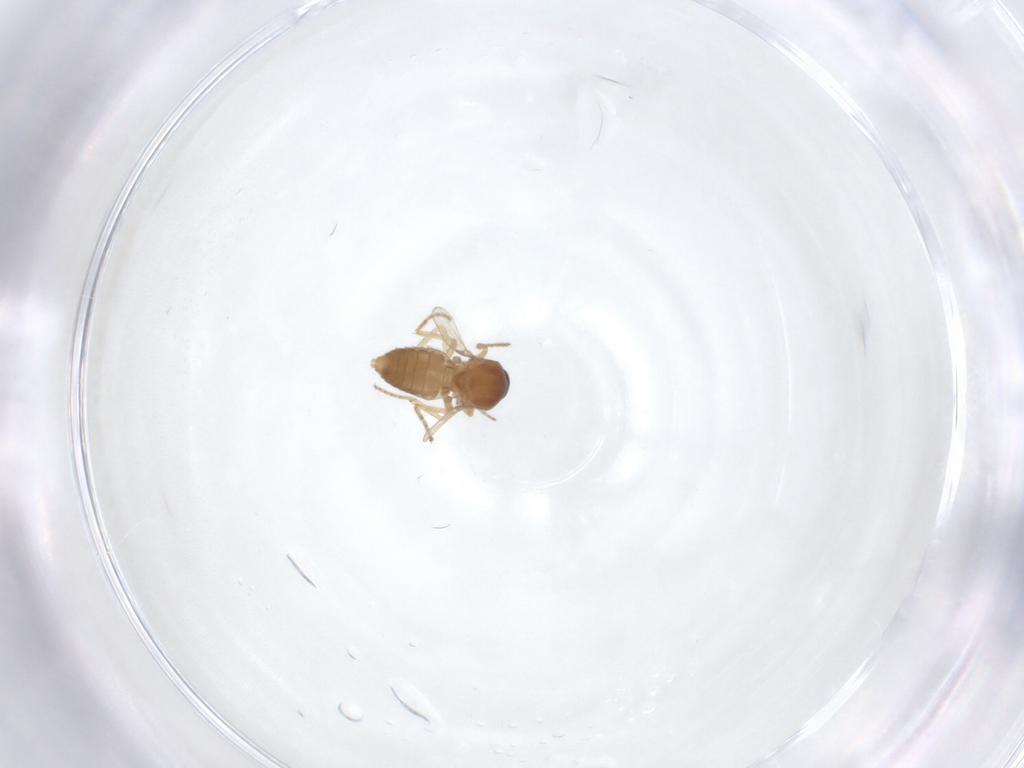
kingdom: Animalia
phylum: Arthropoda
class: Insecta
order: Diptera
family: Ceratopogonidae
